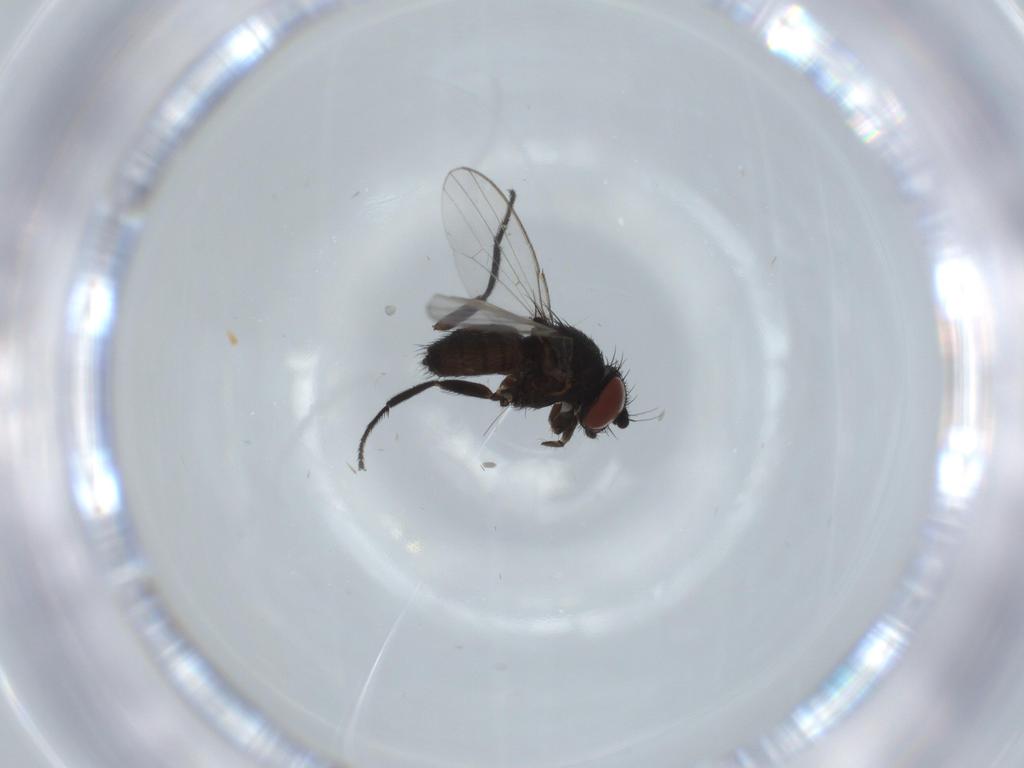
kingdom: Animalia
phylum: Arthropoda
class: Insecta
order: Diptera
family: Milichiidae
